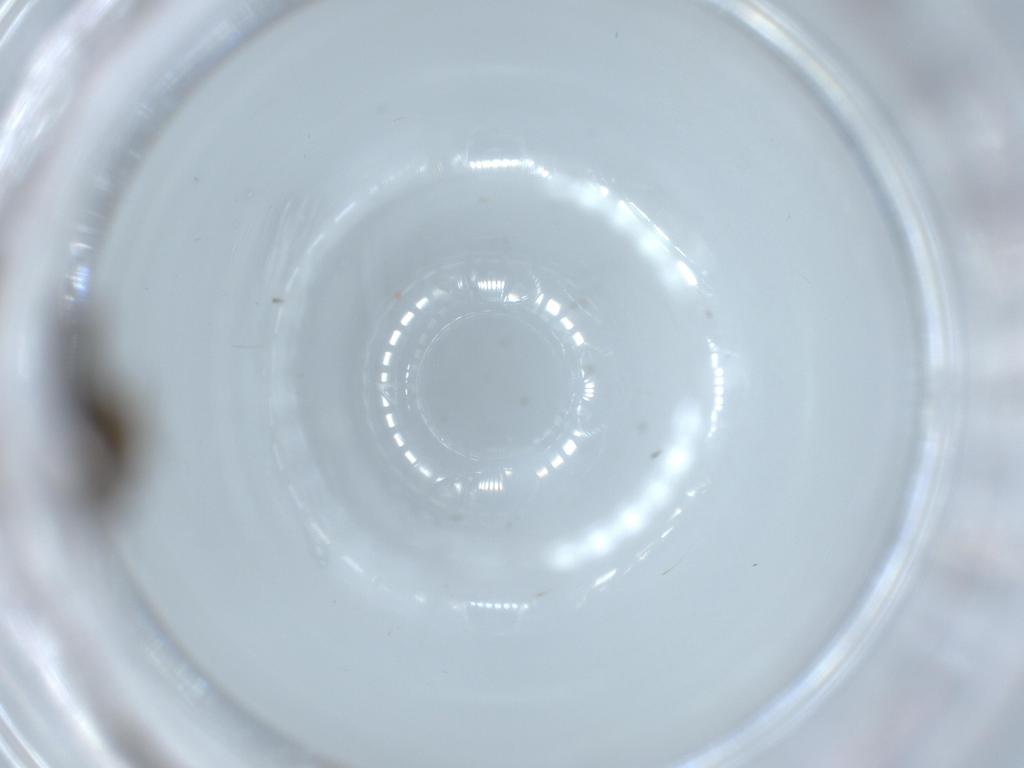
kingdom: Animalia
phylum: Arthropoda
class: Insecta
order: Diptera
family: Sciaridae
